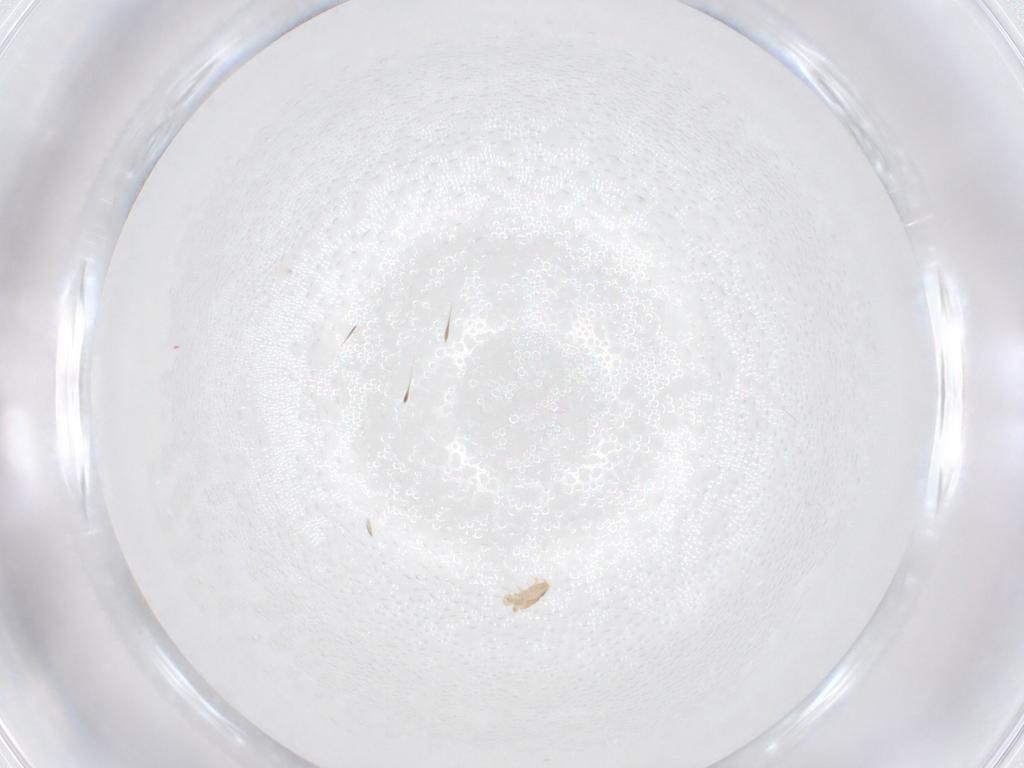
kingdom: Animalia
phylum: Arthropoda
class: Arachnida
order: Mesostigmata
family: Ascidae
